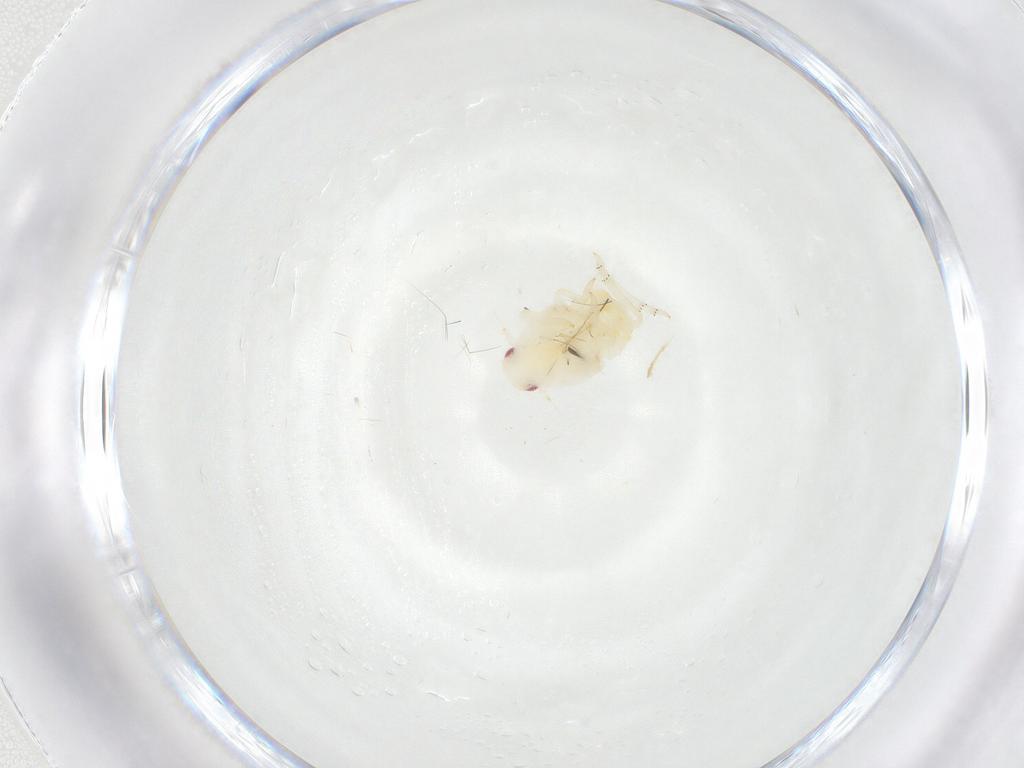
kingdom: Animalia
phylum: Arthropoda
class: Insecta
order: Hemiptera
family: Flatidae
